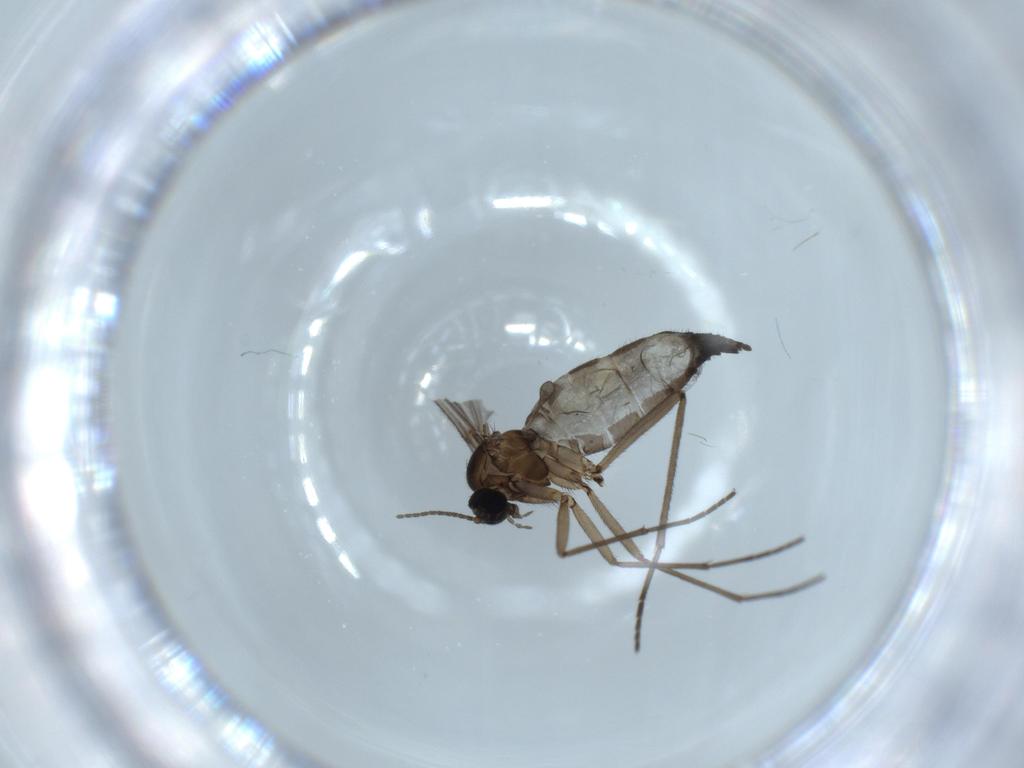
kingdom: Animalia
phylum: Arthropoda
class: Insecta
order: Diptera
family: Sciaridae
